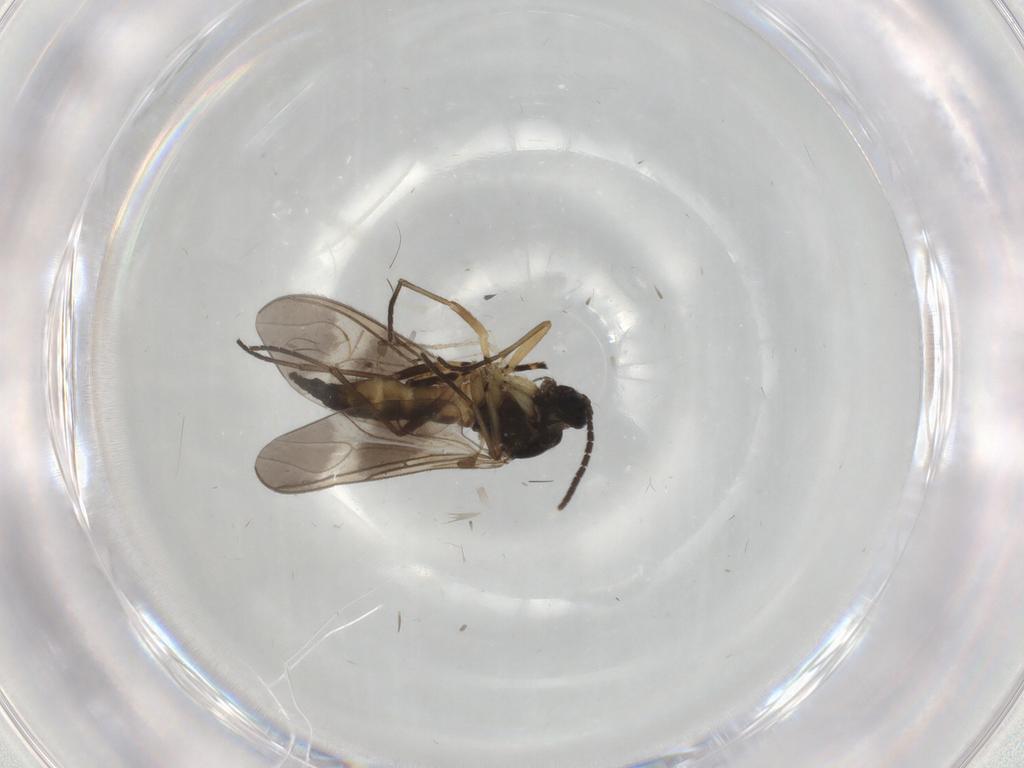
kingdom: Animalia
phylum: Arthropoda
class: Insecta
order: Diptera
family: Sciaridae
